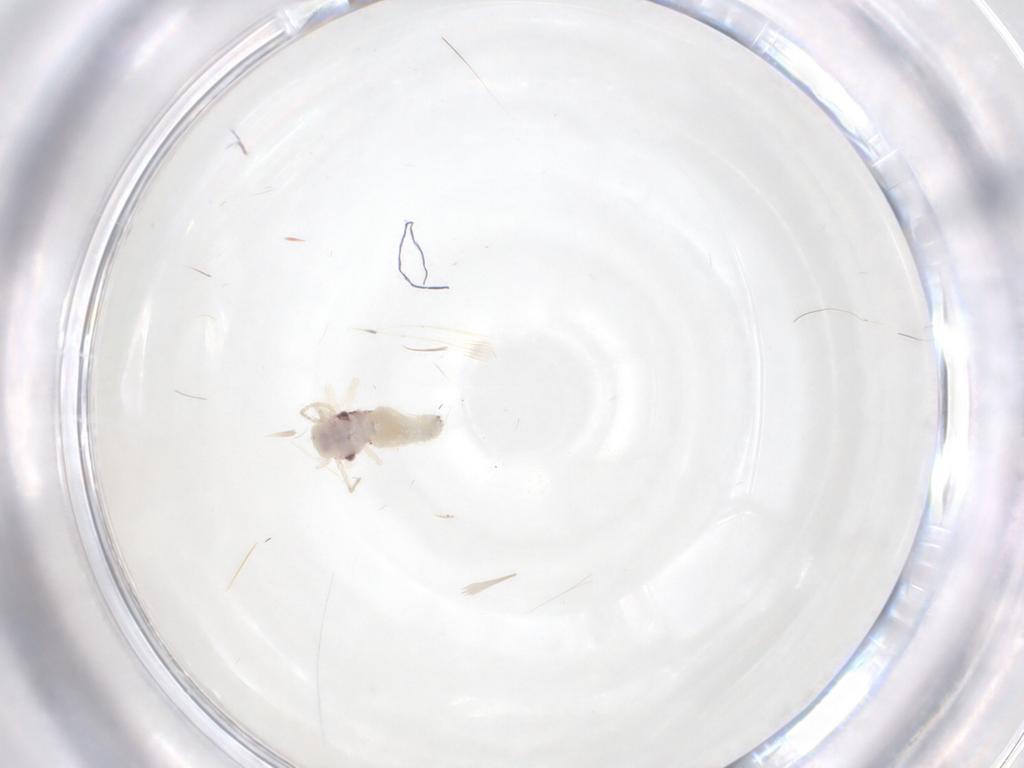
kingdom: Animalia
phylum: Arthropoda
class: Insecta
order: Psocodea
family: Amphipsocidae
